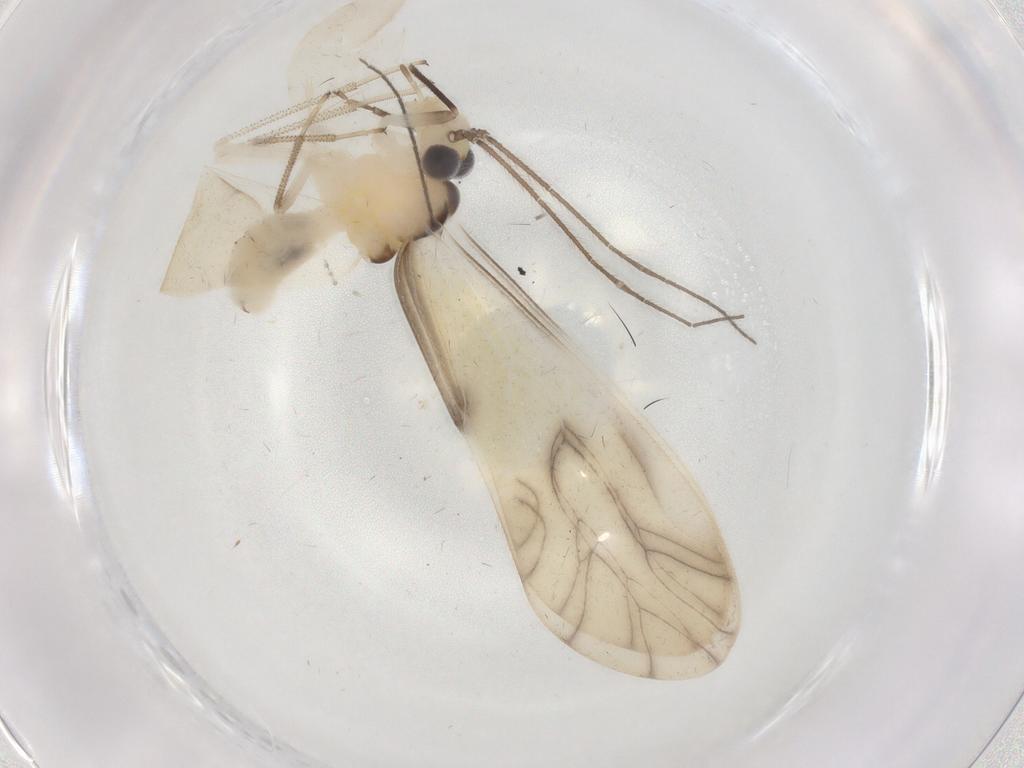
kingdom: Animalia
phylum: Arthropoda
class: Insecta
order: Psocodea
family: Caeciliusidae
